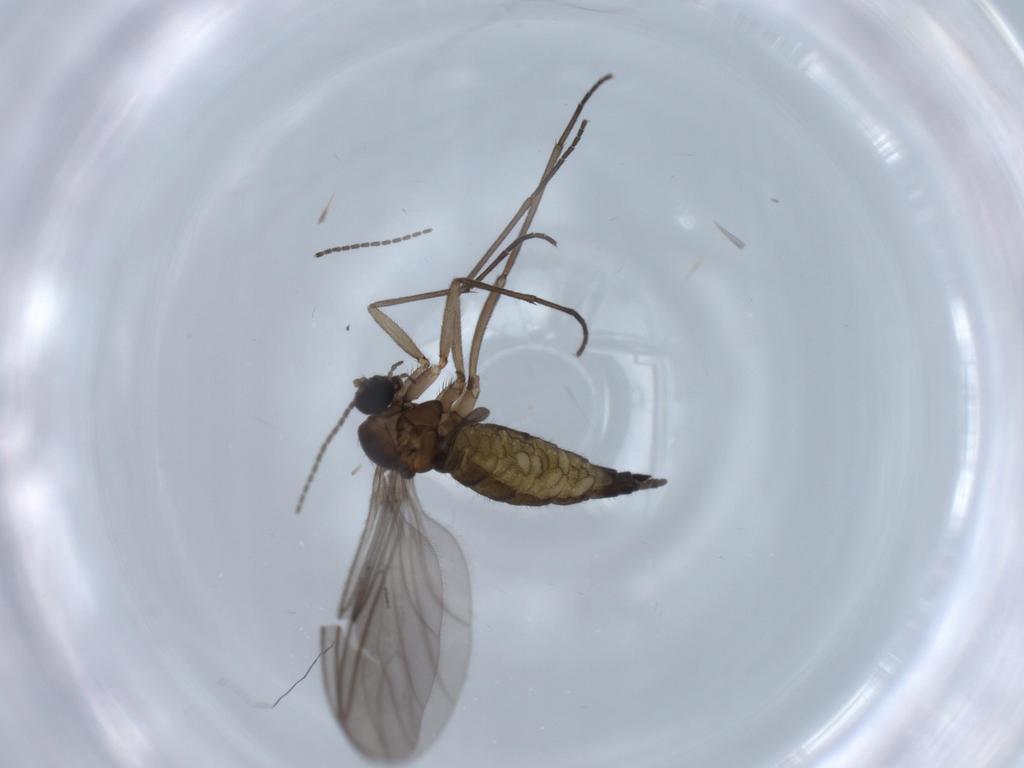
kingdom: Animalia
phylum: Arthropoda
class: Insecta
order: Diptera
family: Sciaridae
